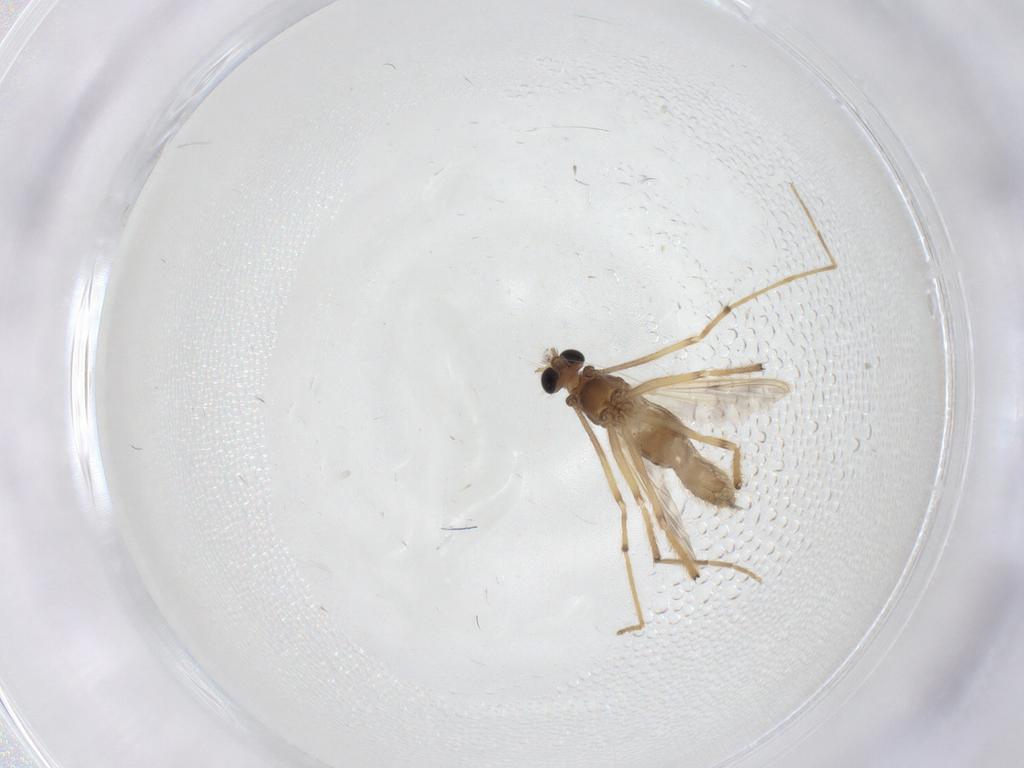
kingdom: Animalia
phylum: Arthropoda
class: Insecta
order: Diptera
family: Chironomidae
